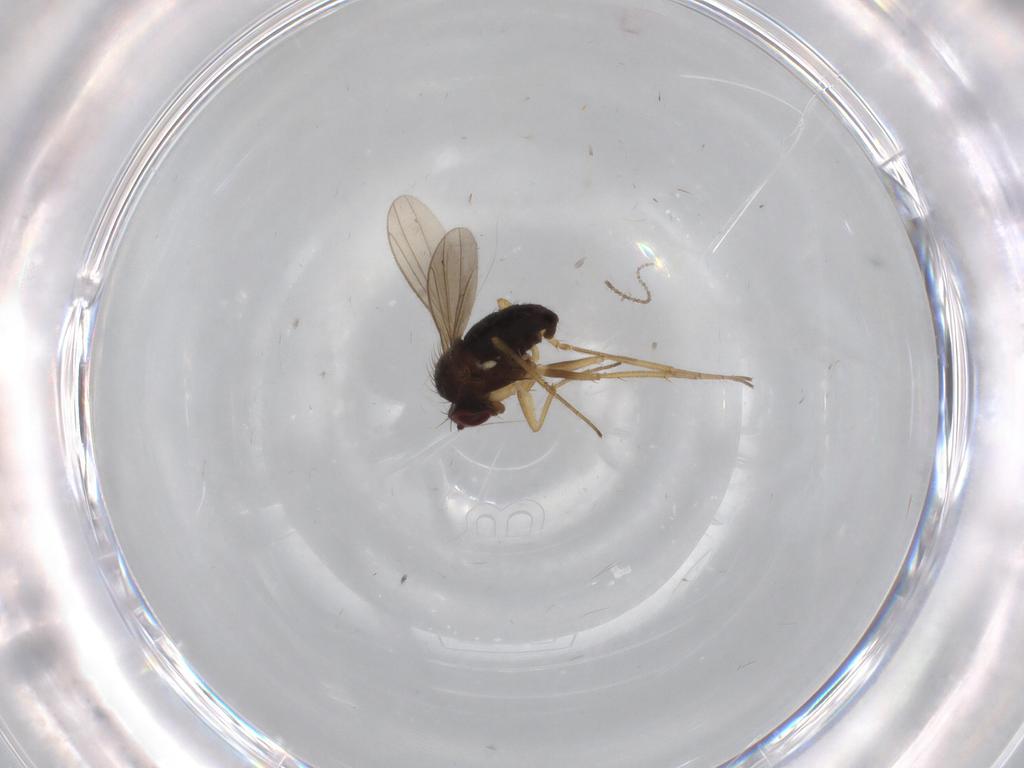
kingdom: Animalia
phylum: Arthropoda
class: Insecta
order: Diptera
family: Dolichopodidae
